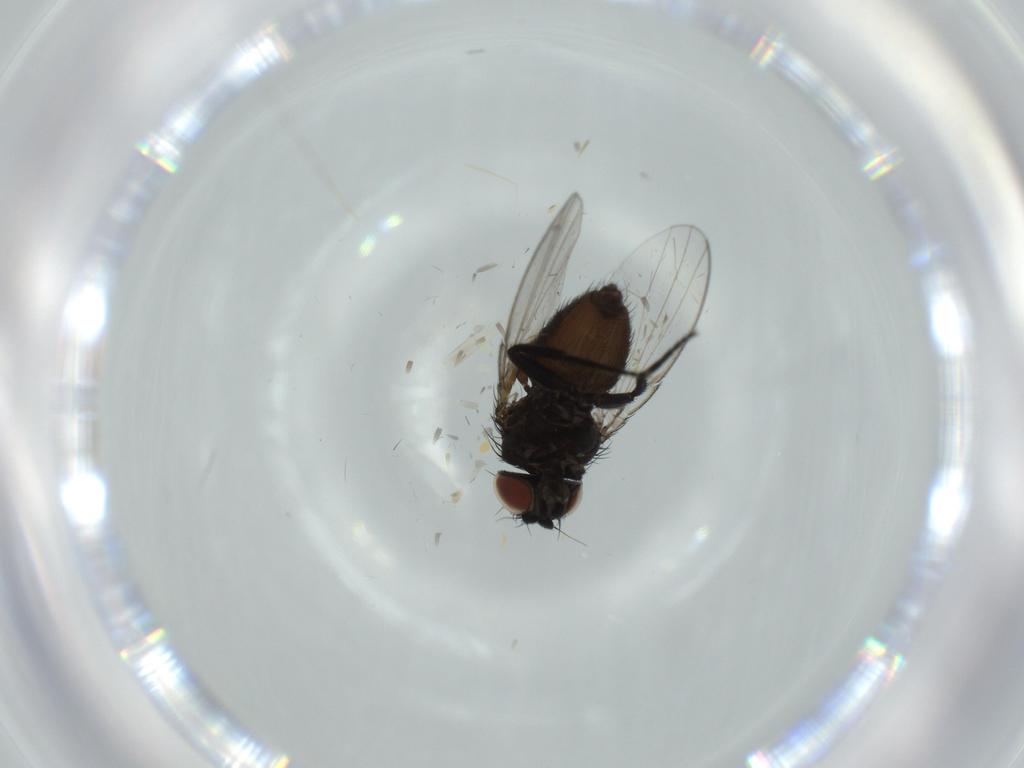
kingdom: Animalia
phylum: Arthropoda
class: Insecta
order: Diptera
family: Milichiidae
